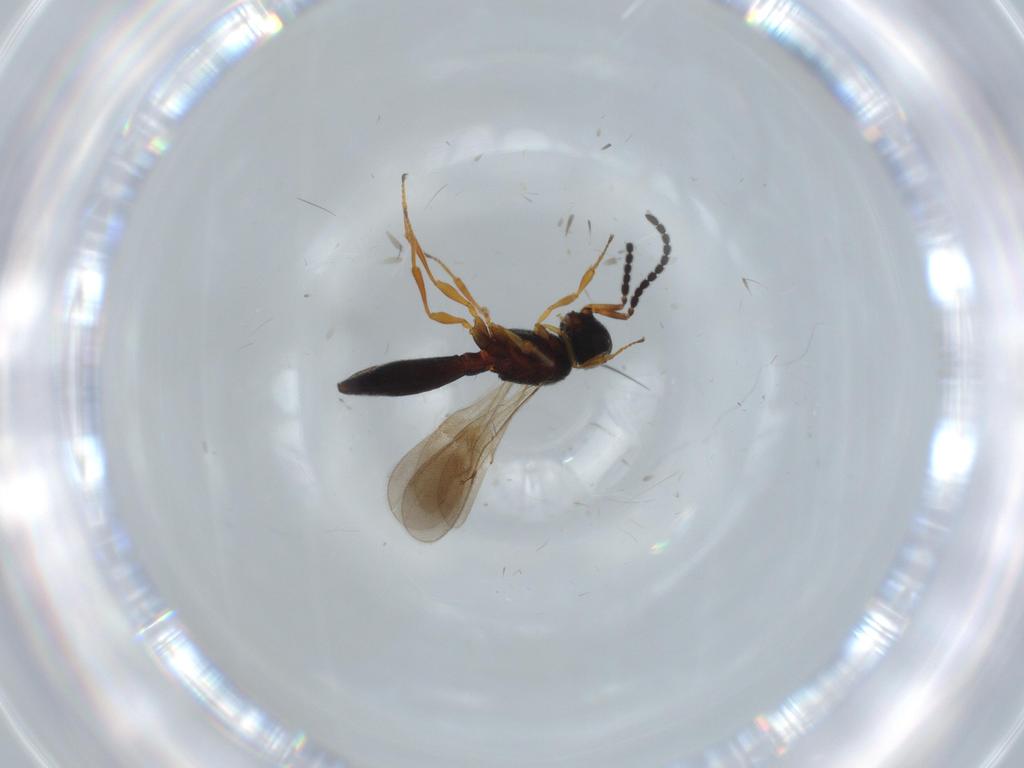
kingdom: Animalia
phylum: Arthropoda
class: Insecta
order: Hymenoptera
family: Scelionidae
